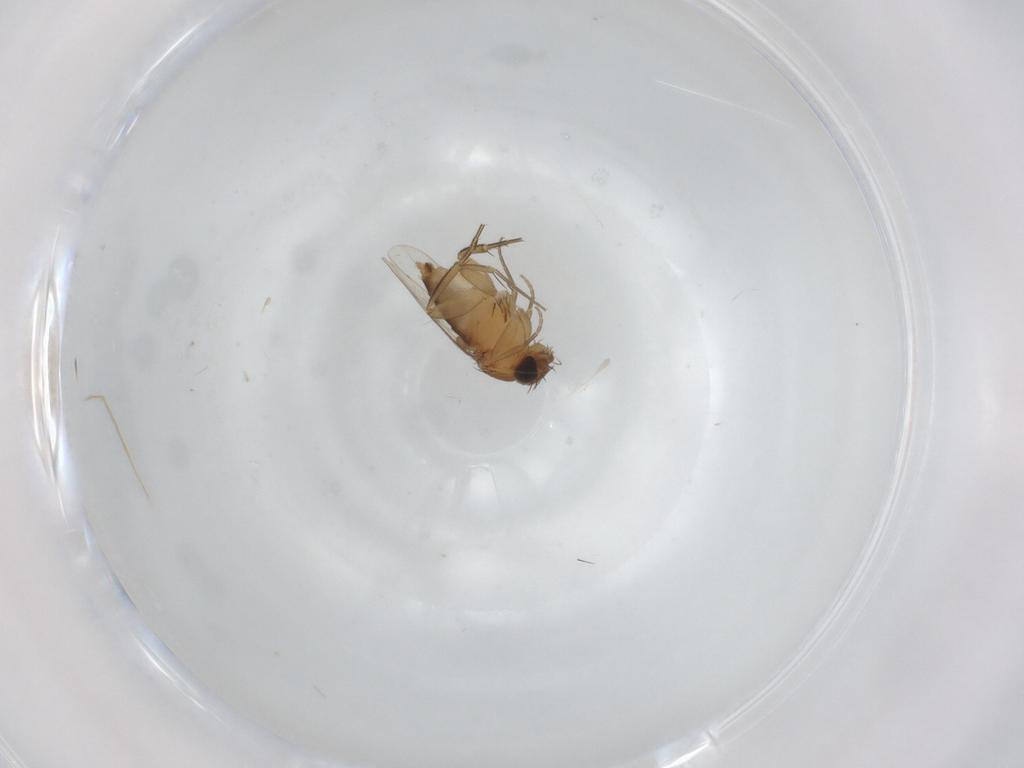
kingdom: Animalia
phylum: Arthropoda
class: Insecta
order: Diptera
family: Phoridae
